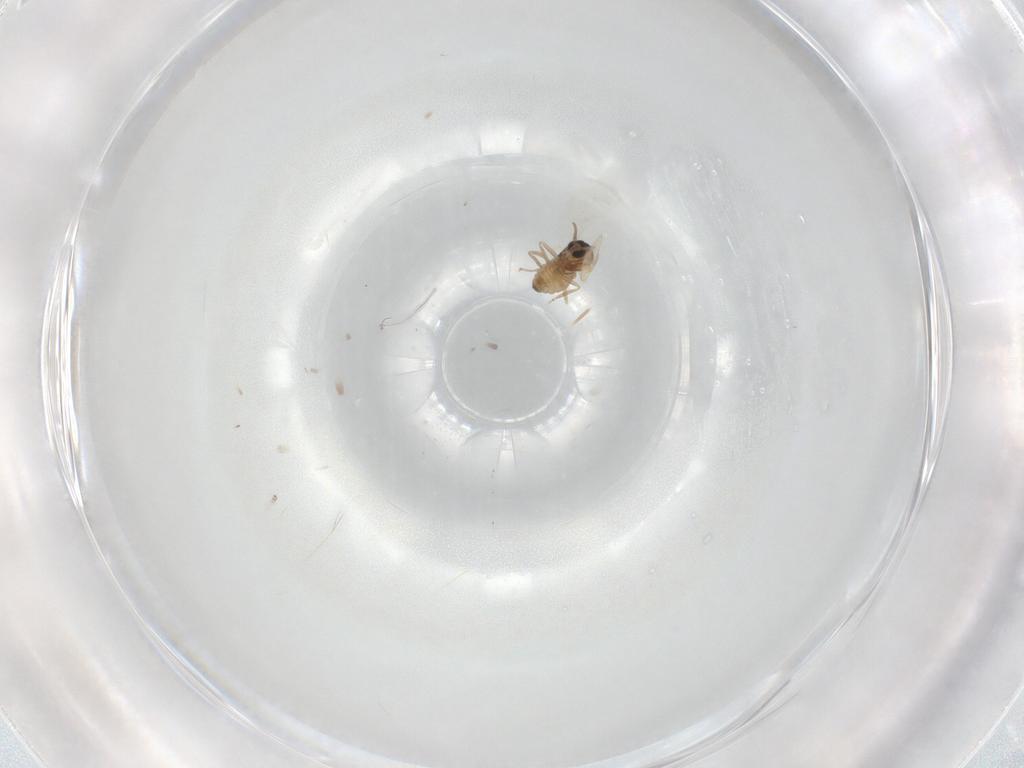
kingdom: Animalia
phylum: Arthropoda
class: Insecta
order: Diptera
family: Cecidomyiidae
